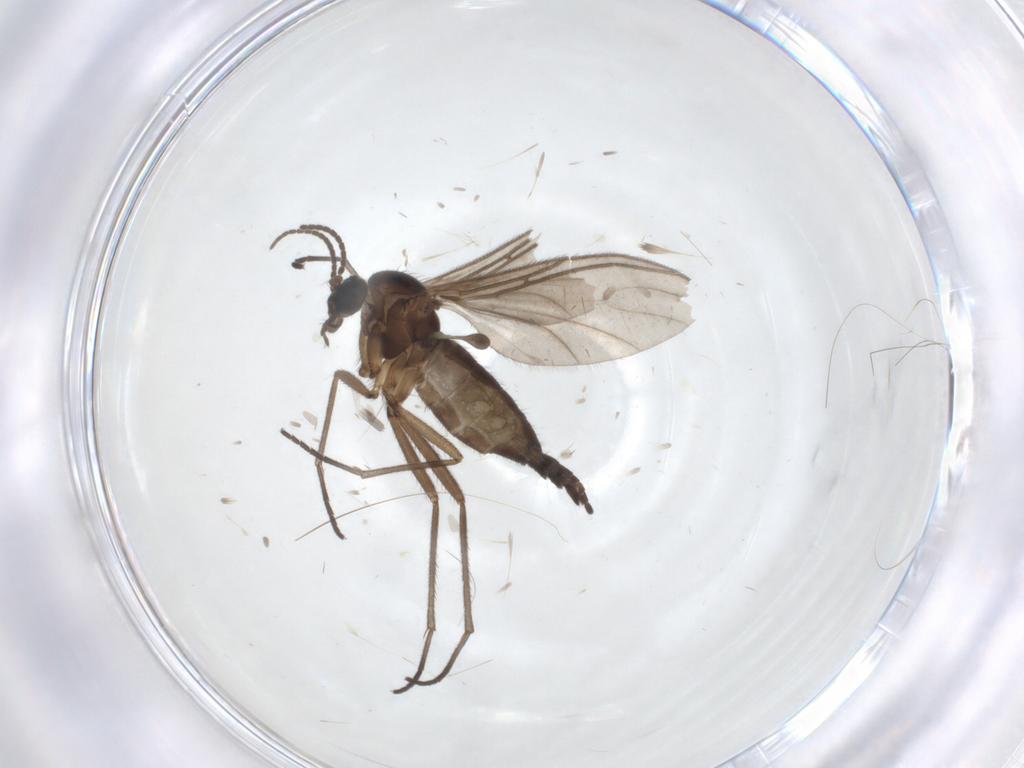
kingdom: Animalia
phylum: Arthropoda
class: Insecta
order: Diptera
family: Sciaridae
